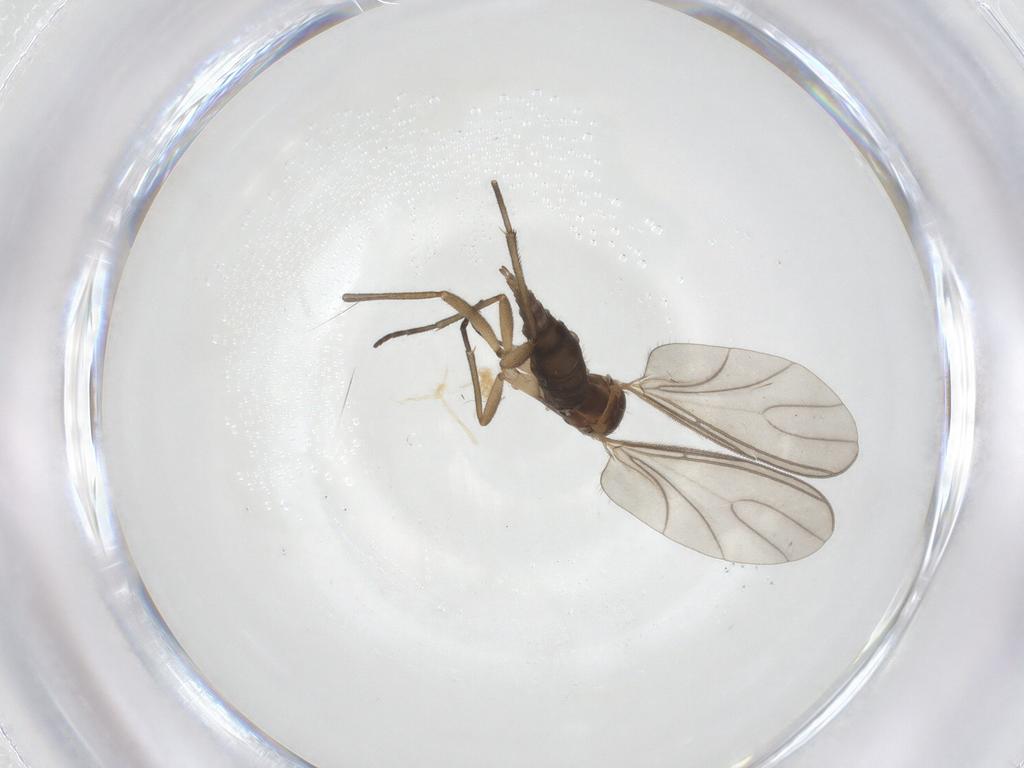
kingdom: Animalia
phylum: Arthropoda
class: Insecta
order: Diptera
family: Sciaridae
